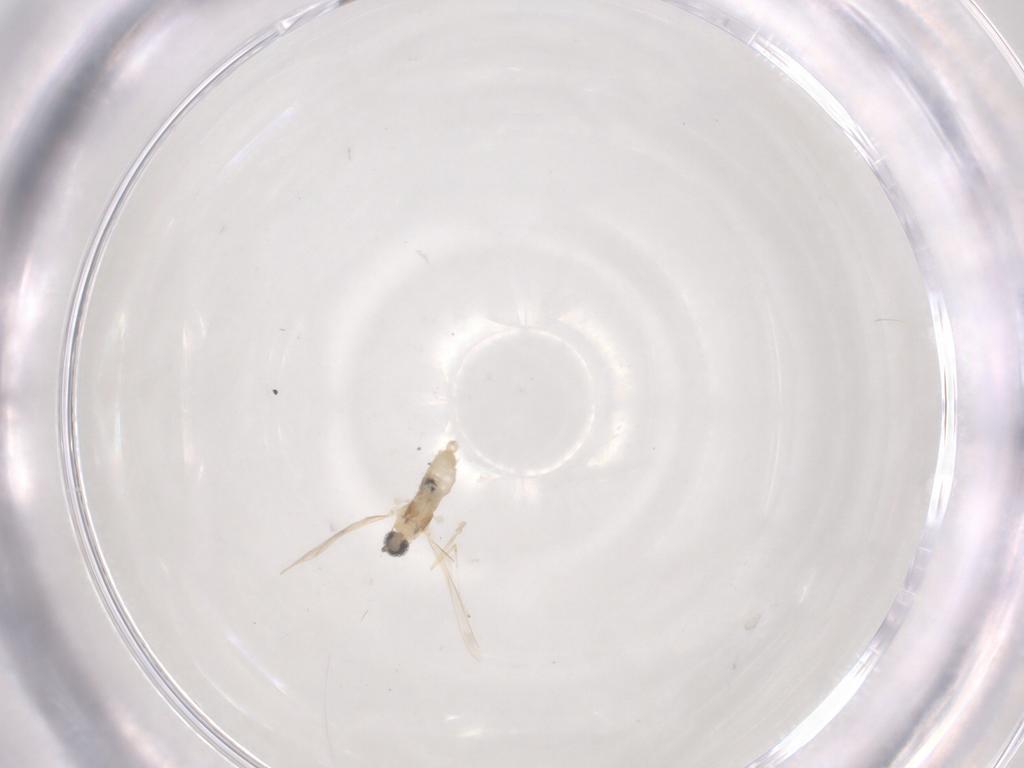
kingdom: Animalia
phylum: Arthropoda
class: Insecta
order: Diptera
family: Cecidomyiidae
